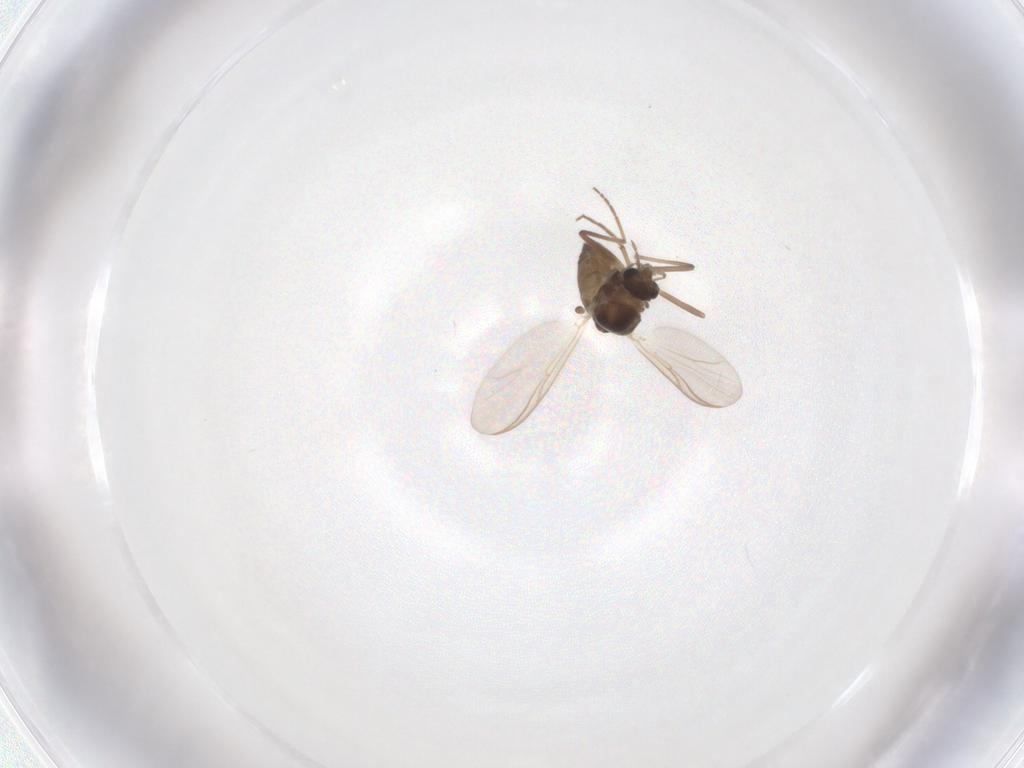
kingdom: Animalia
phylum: Arthropoda
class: Insecta
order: Diptera
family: Chironomidae
